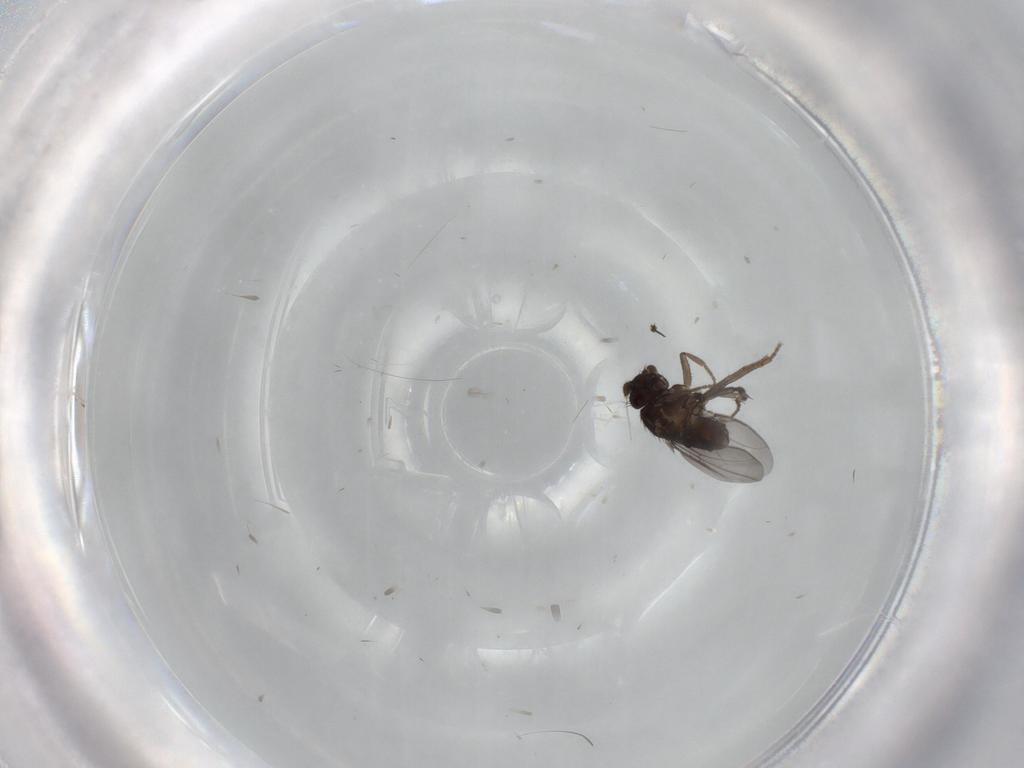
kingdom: Animalia
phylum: Arthropoda
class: Insecta
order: Diptera
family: Sphaeroceridae
